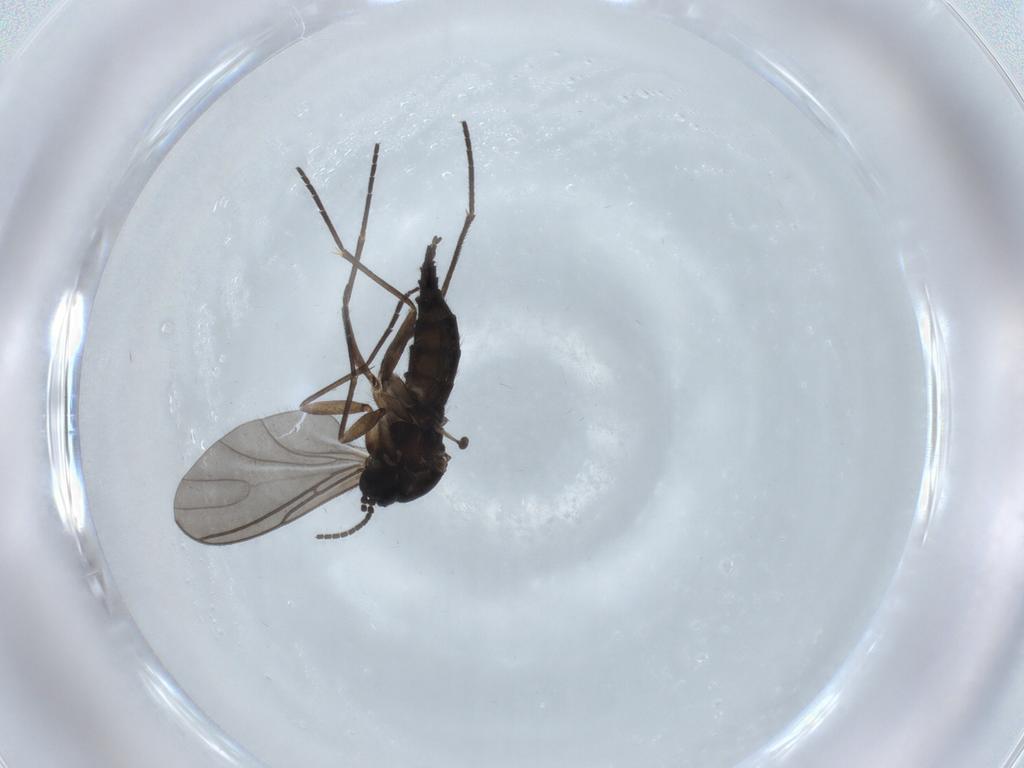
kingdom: Animalia
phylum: Arthropoda
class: Insecta
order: Diptera
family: Sciaridae
